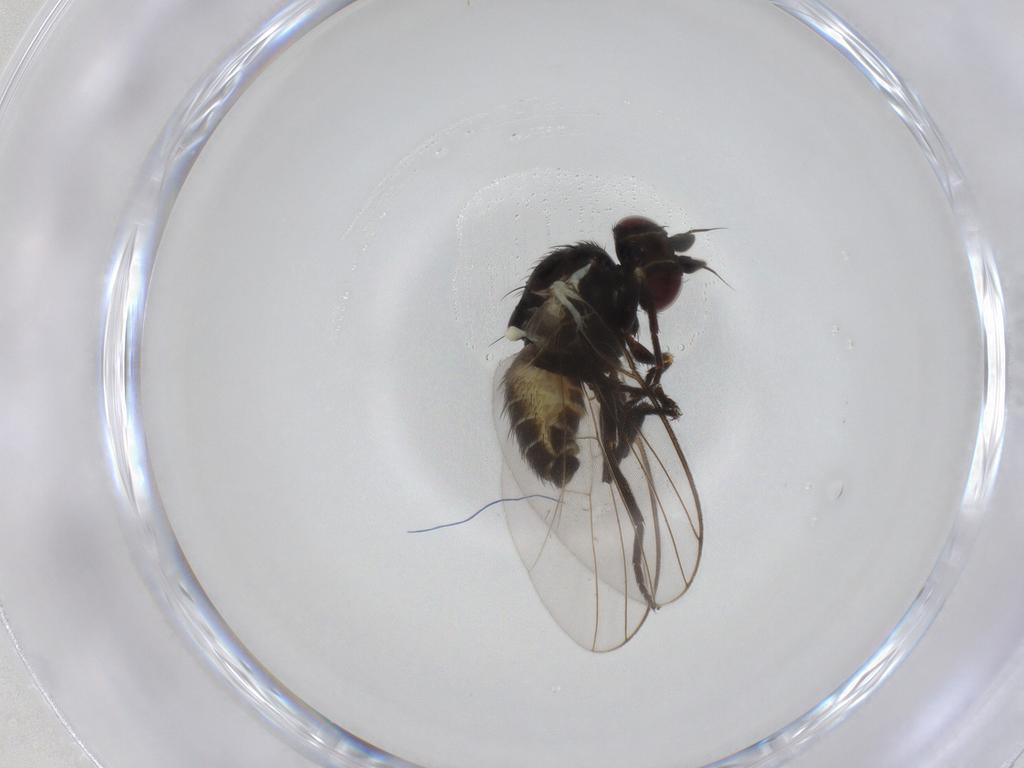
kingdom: Animalia
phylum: Arthropoda
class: Insecta
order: Diptera
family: Agromyzidae
